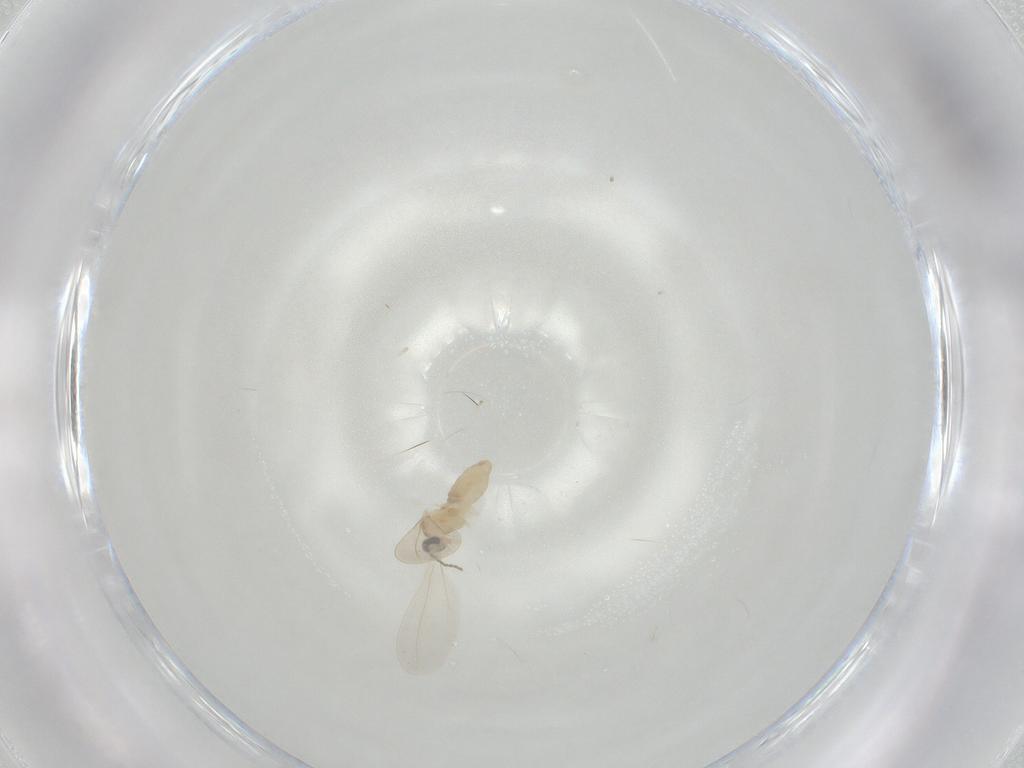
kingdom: Animalia
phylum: Arthropoda
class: Insecta
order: Diptera
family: Cecidomyiidae
